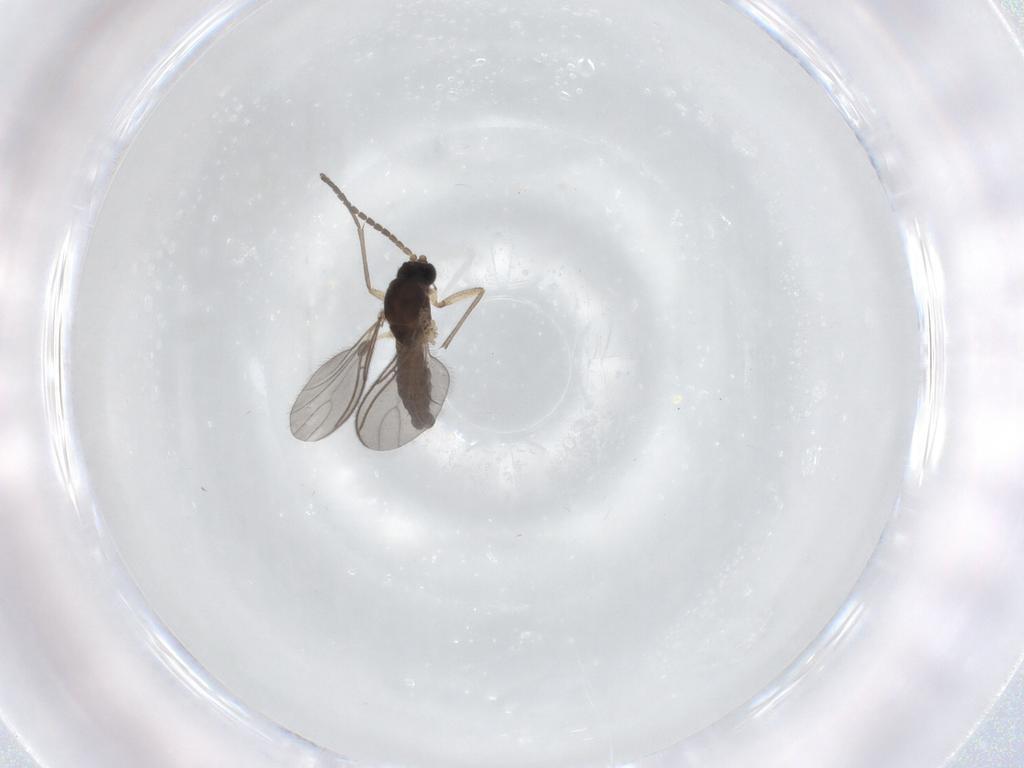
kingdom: Animalia
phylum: Arthropoda
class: Insecta
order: Diptera
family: Sciaridae
